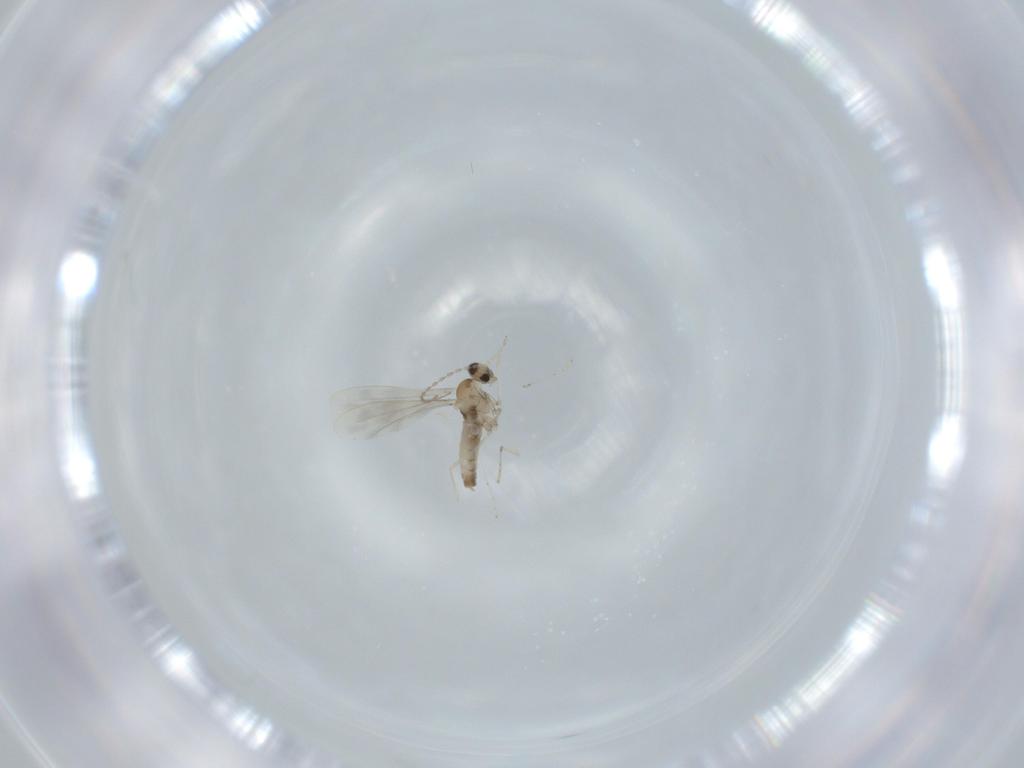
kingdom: Animalia
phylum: Arthropoda
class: Insecta
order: Diptera
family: Cecidomyiidae
